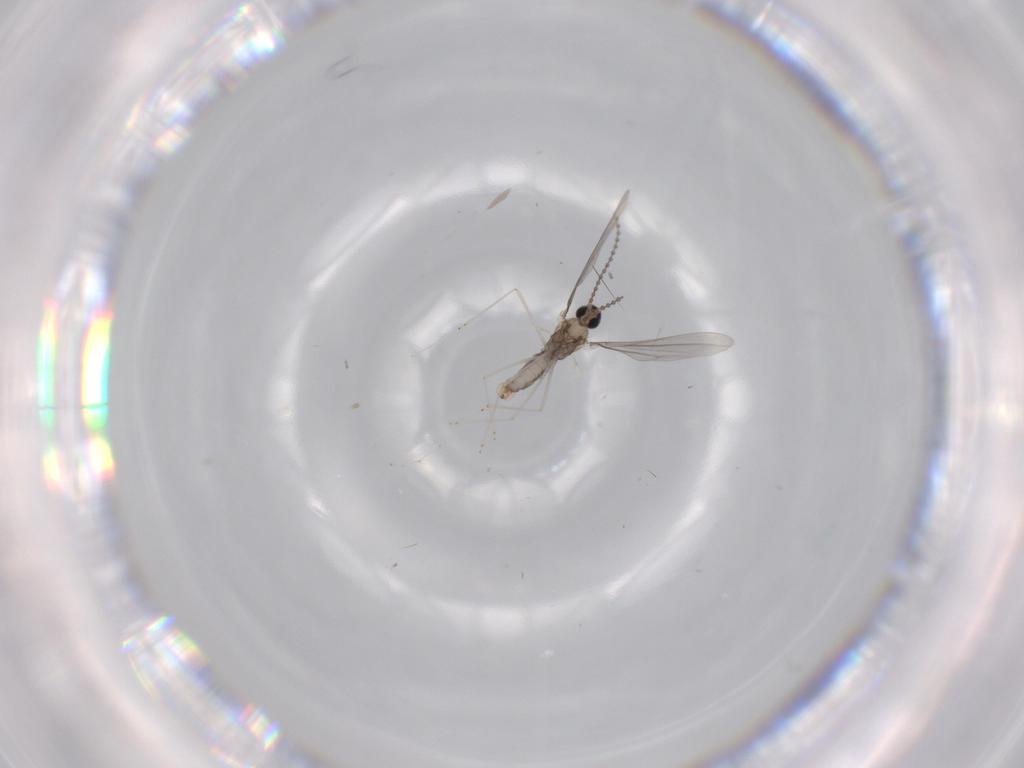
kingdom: Animalia
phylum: Arthropoda
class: Insecta
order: Diptera
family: Cecidomyiidae
